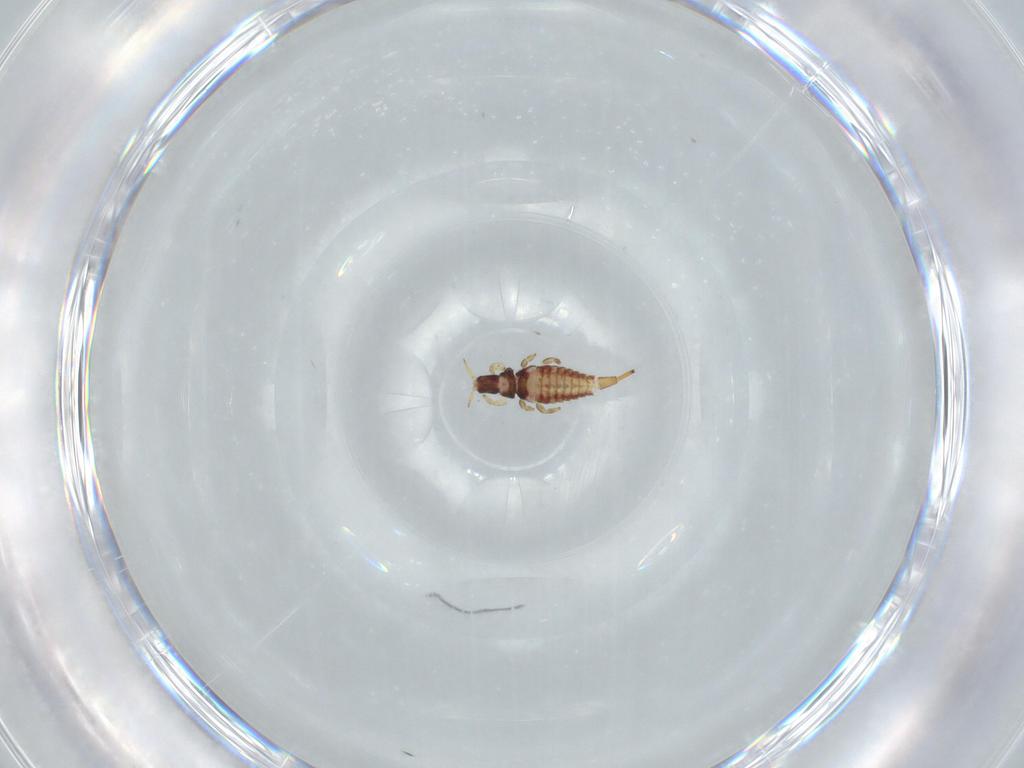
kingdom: Animalia
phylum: Arthropoda
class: Insecta
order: Thysanoptera
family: Phlaeothripidae
